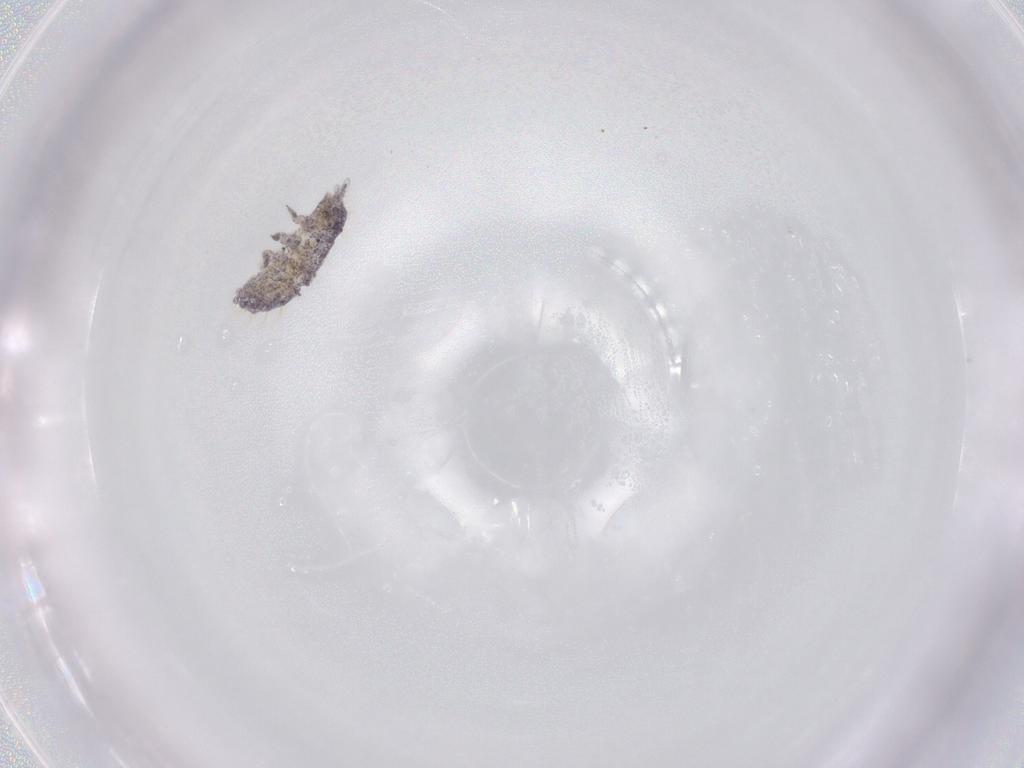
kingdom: Animalia
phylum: Arthropoda
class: Collembola
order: Poduromorpha
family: Neanuridae
